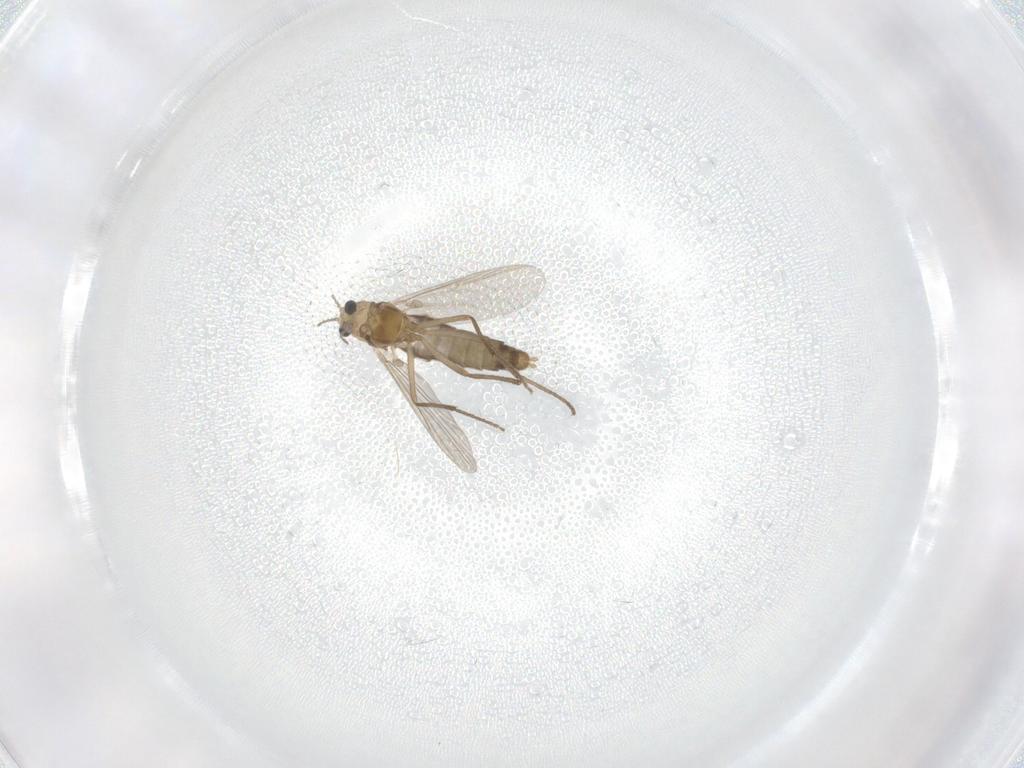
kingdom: Animalia
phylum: Arthropoda
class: Insecta
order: Diptera
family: Chironomidae
